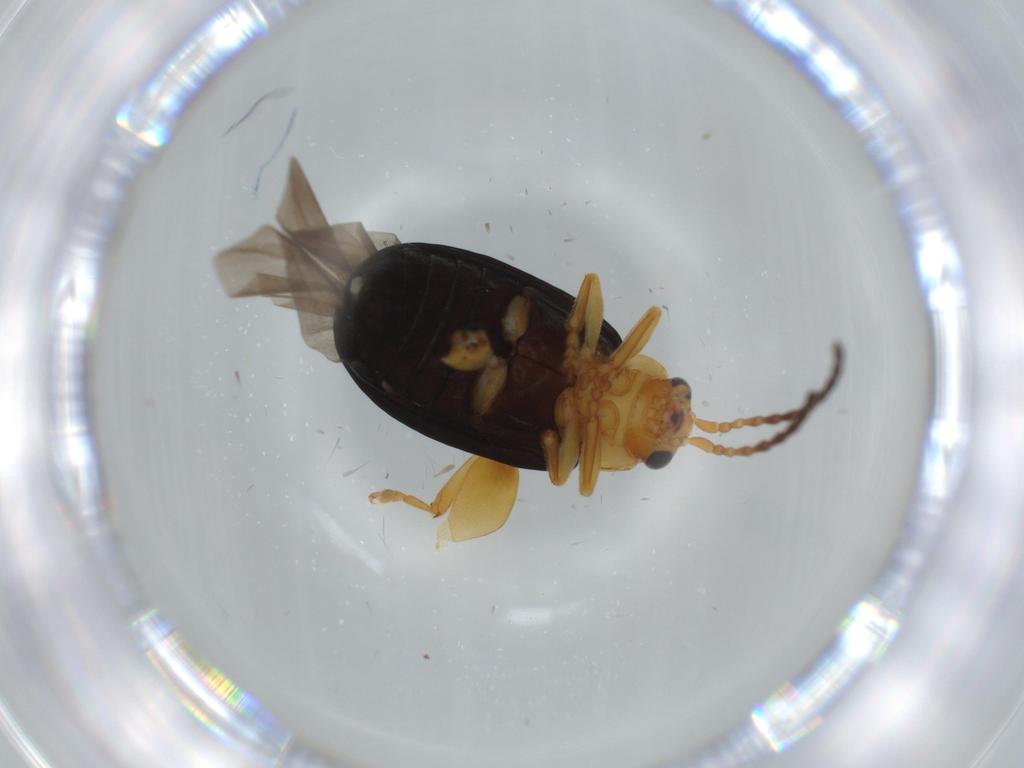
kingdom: Animalia
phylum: Arthropoda
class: Insecta
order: Coleoptera
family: Chrysomelidae
